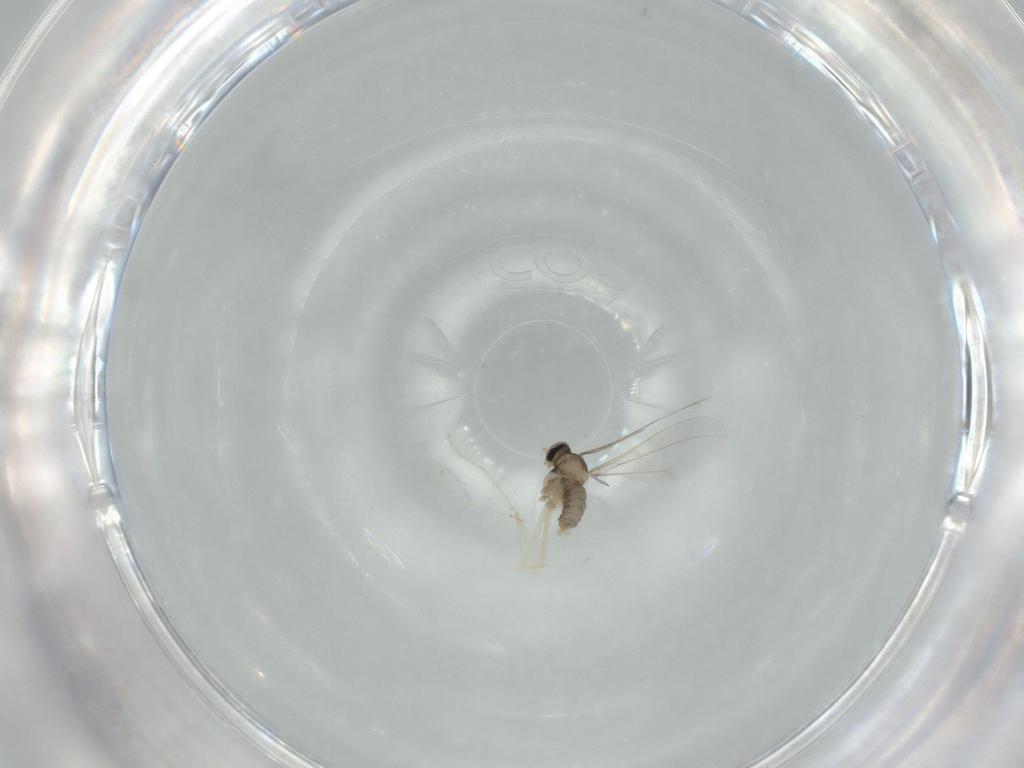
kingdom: Animalia
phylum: Arthropoda
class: Insecta
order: Diptera
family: Cecidomyiidae
